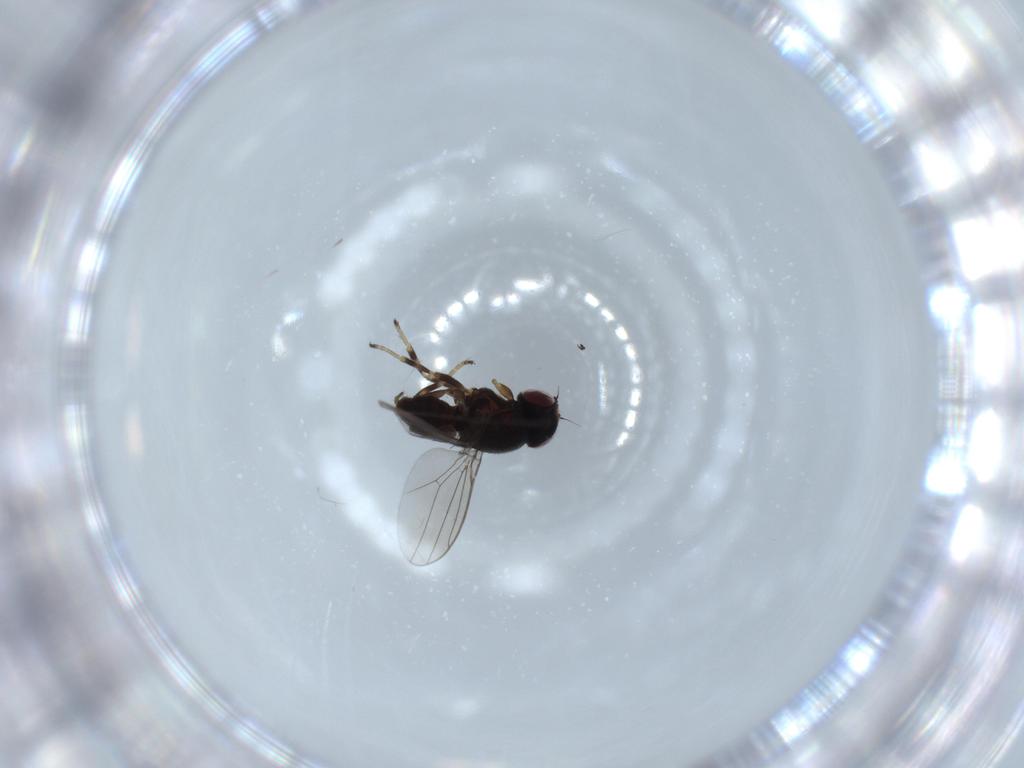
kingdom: Animalia
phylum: Arthropoda
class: Insecta
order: Diptera
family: Chloropidae
